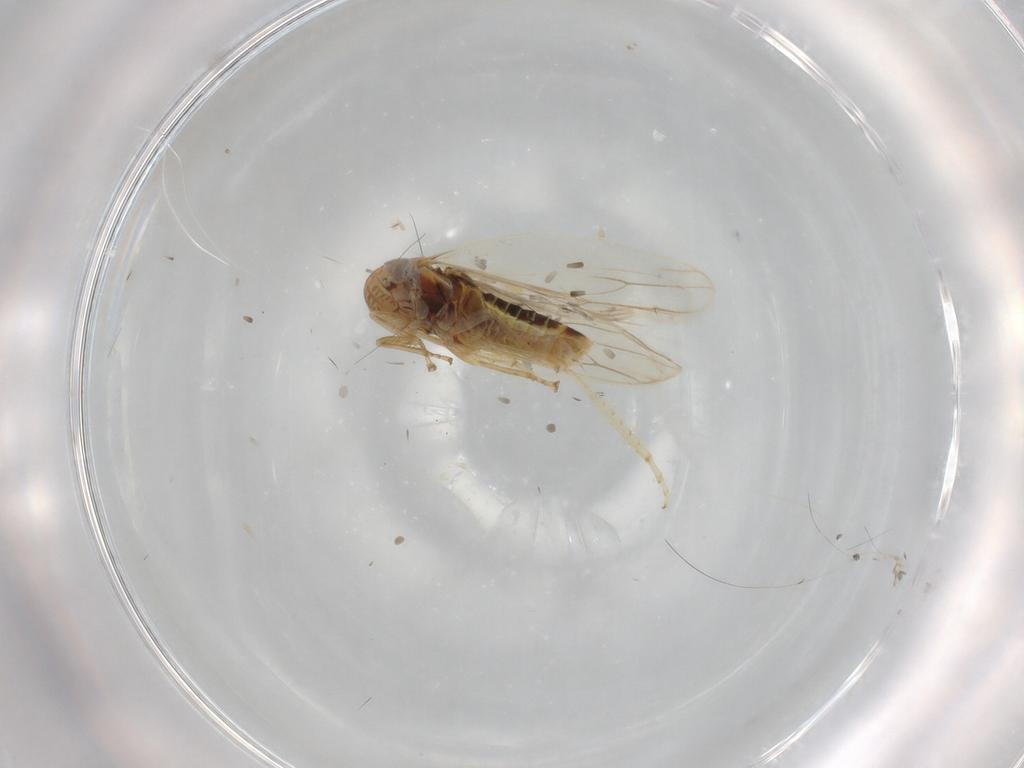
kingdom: Animalia
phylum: Arthropoda
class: Insecta
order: Hemiptera
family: Cicadellidae
